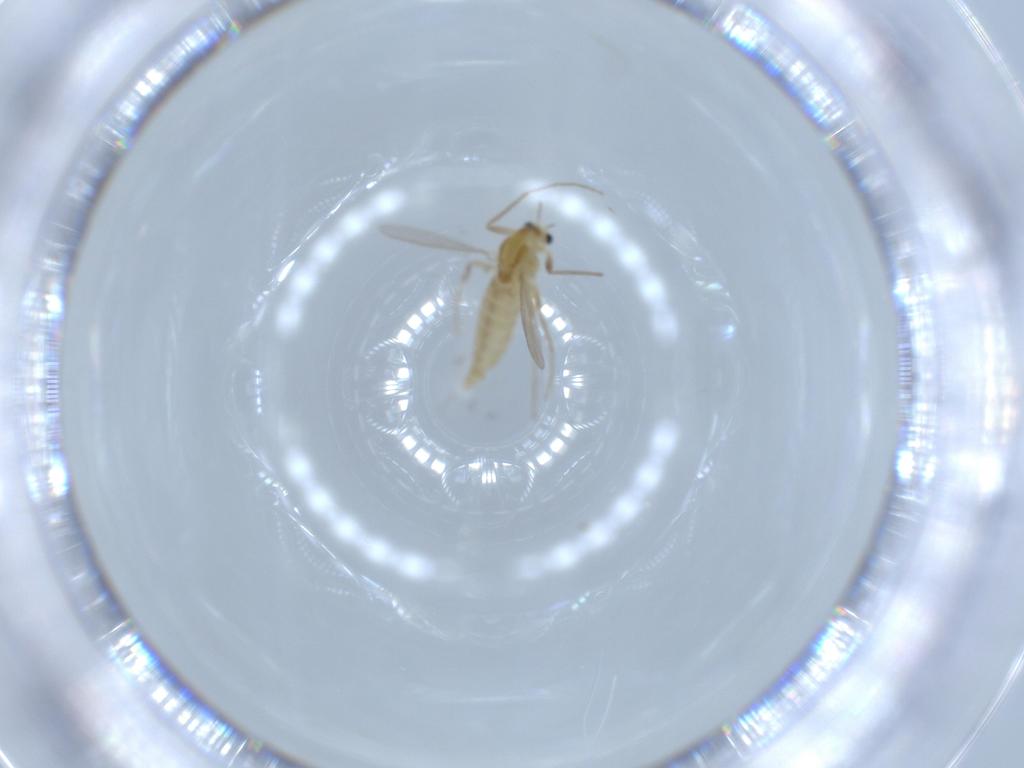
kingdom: Animalia
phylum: Arthropoda
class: Insecta
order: Diptera
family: Chironomidae
